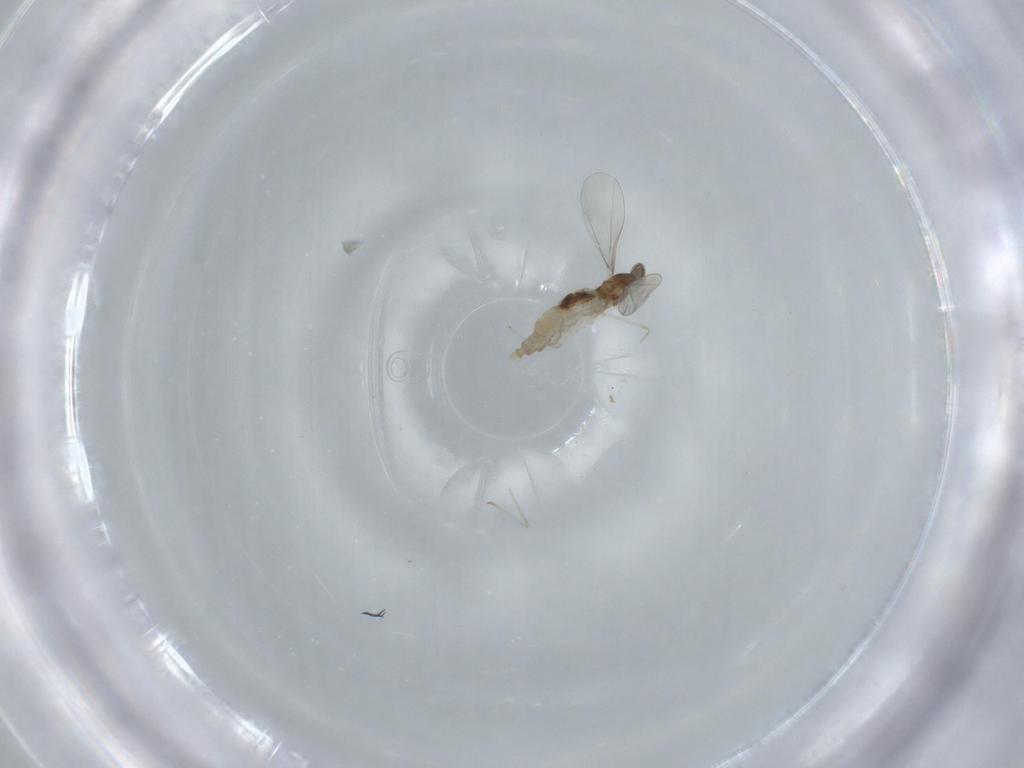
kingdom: Animalia
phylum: Arthropoda
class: Insecta
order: Diptera
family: Cecidomyiidae
